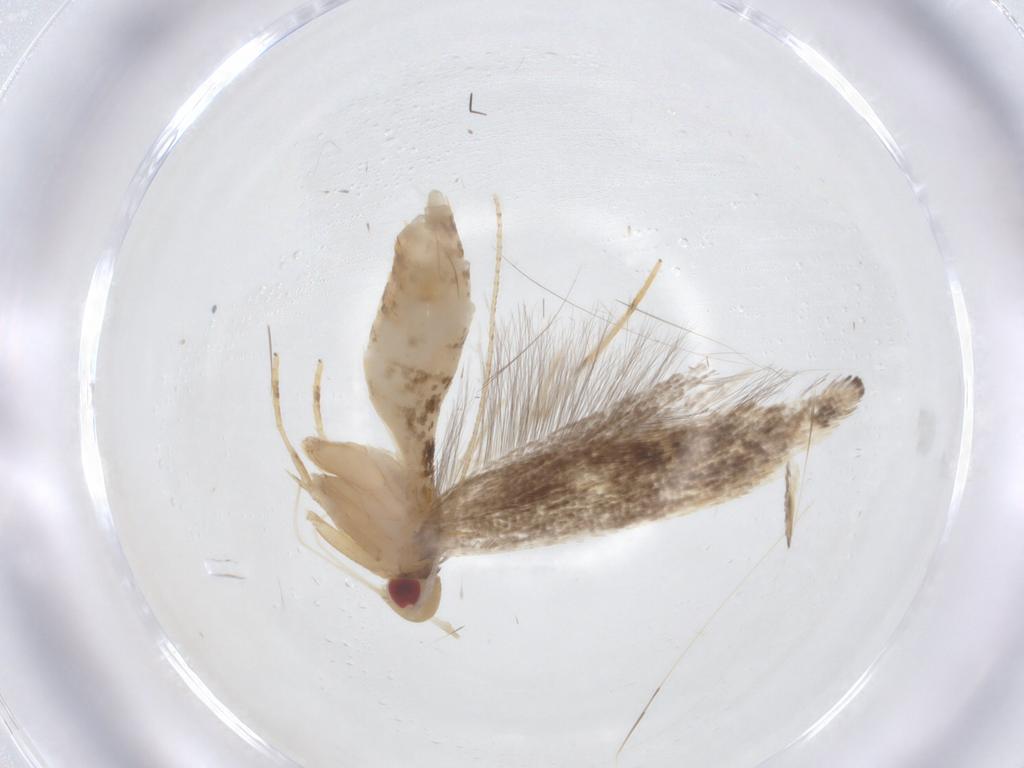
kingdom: Animalia
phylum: Arthropoda
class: Insecta
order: Lepidoptera
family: Cosmopterigidae
